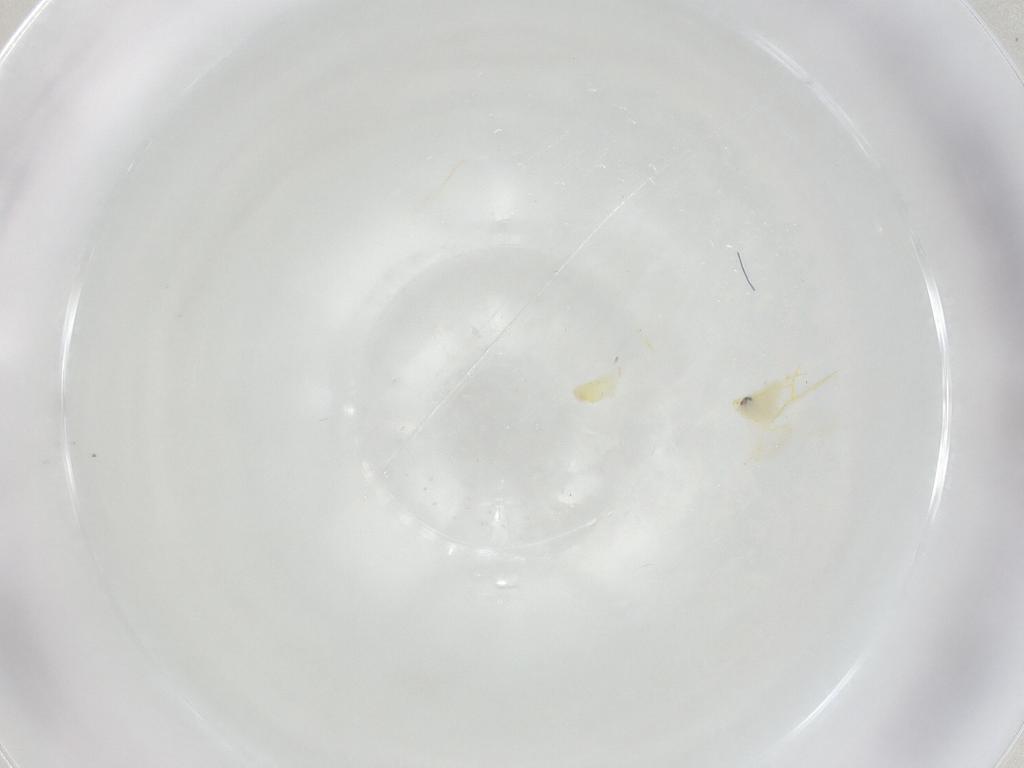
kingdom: Animalia
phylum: Arthropoda
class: Insecta
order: Hemiptera
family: Aleyrodidae
